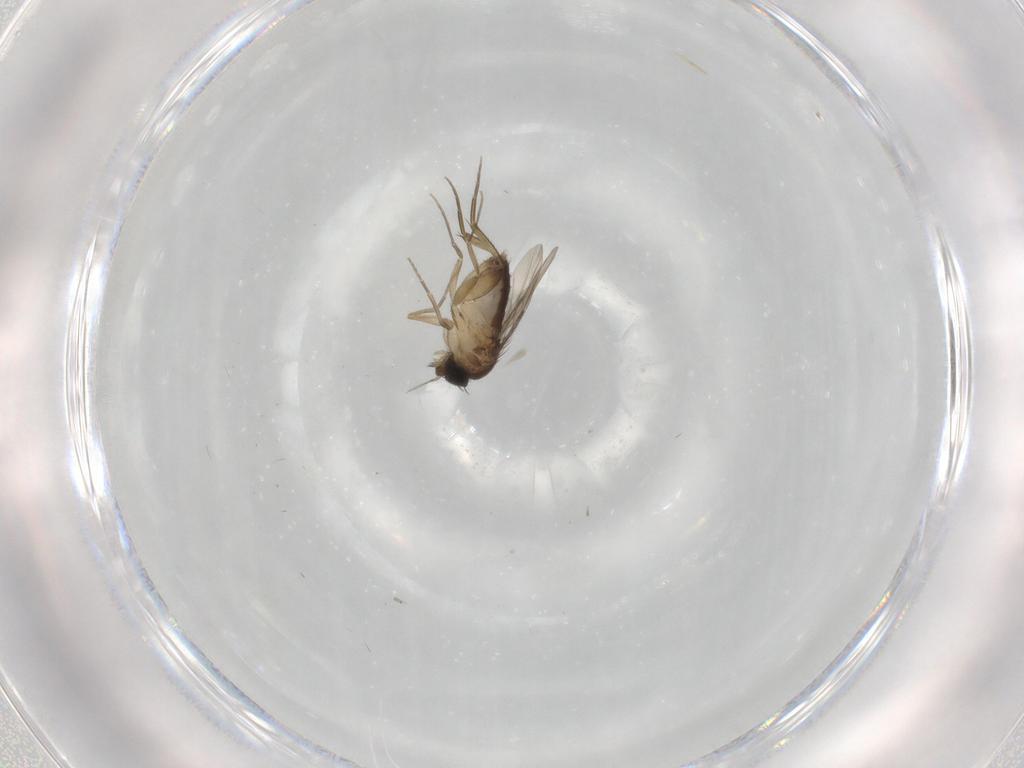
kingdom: Animalia
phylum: Arthropoda
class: Insecta
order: Diptera
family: Phoridae
